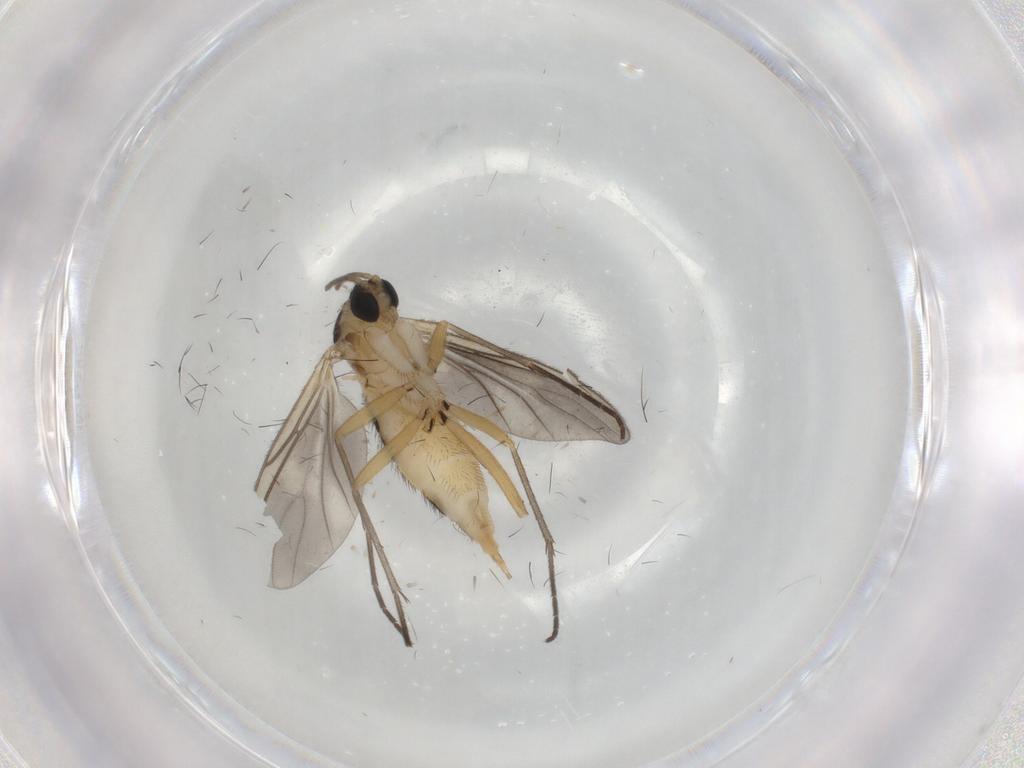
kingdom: Animalia
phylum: Arthropoda
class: Insecta
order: Diptera
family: Sciaridae
